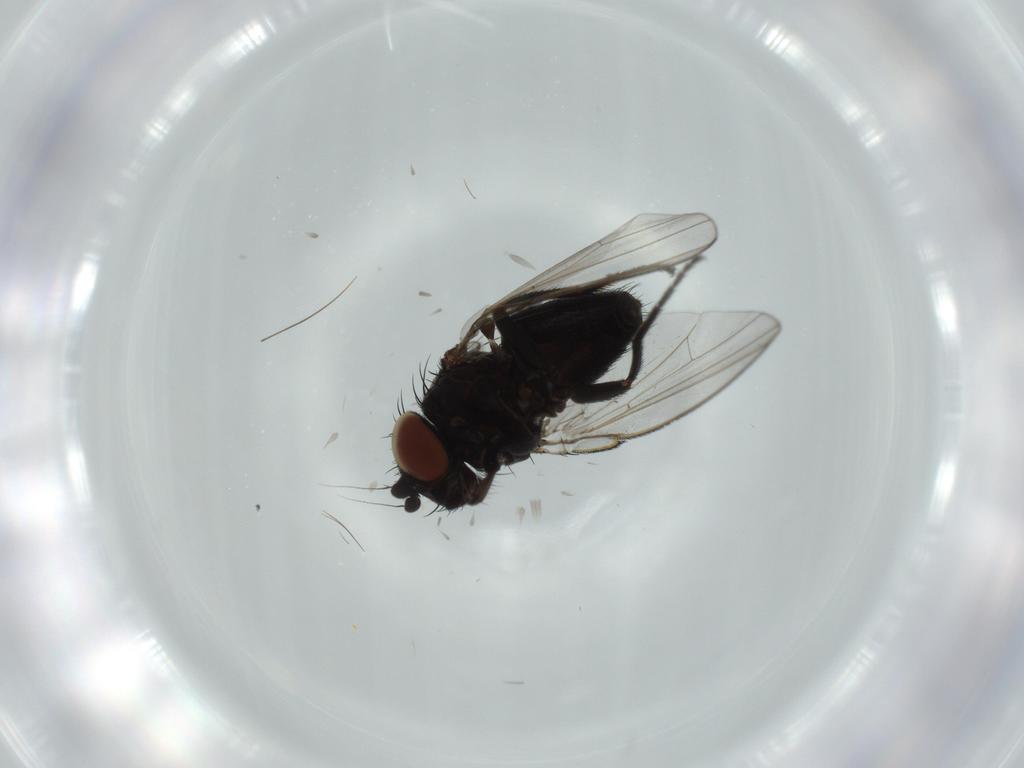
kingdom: Animalia
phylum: Arthropoda
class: Insecta
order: Diptera
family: Milichiidae
